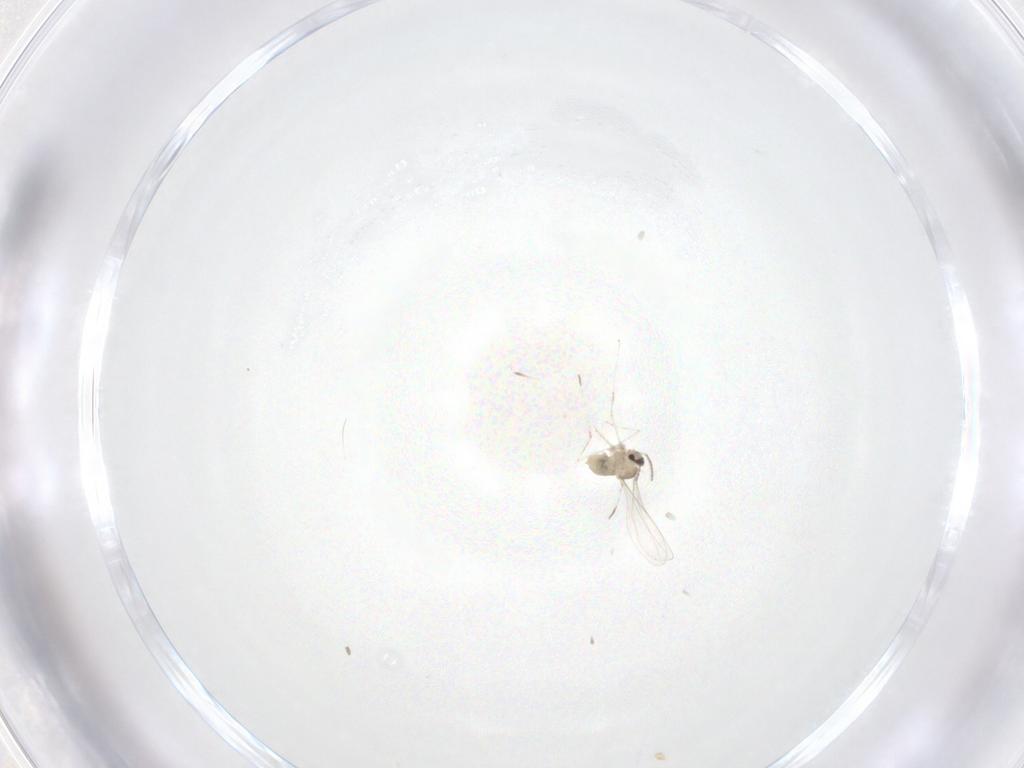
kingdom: Animalia
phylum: Arthropoda
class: Insecta
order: Diptera
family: Cecidomyiidae
